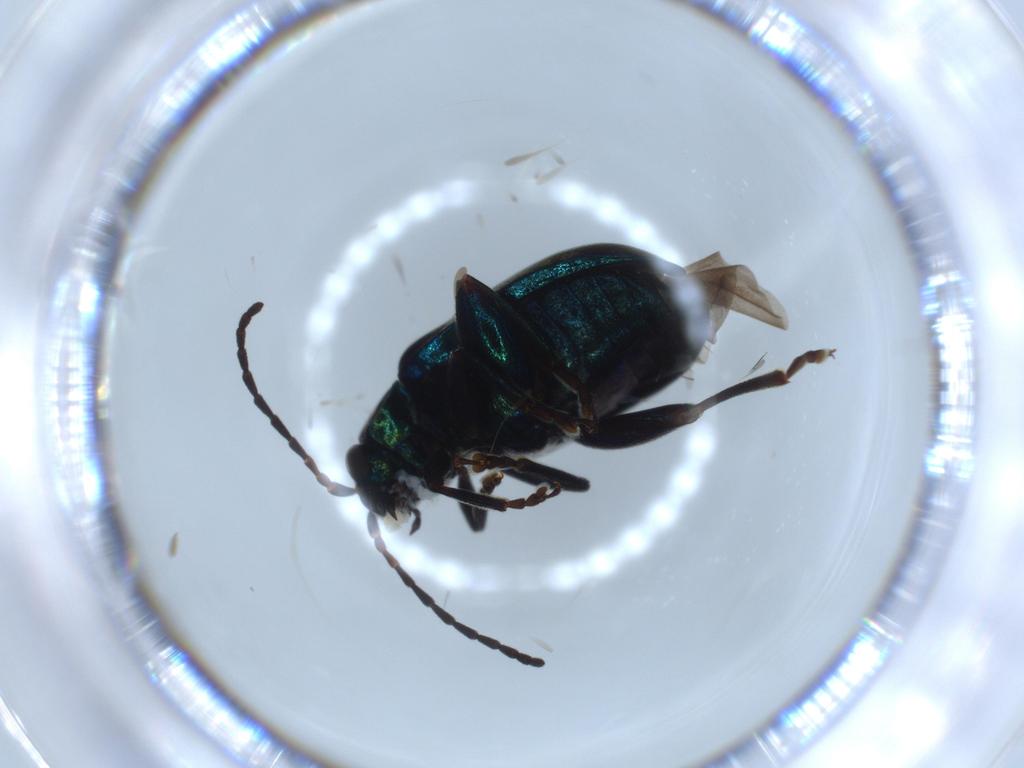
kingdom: Animalia
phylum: Arthropoda
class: Insecta
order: Coleoptera
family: Chrysomelidae
